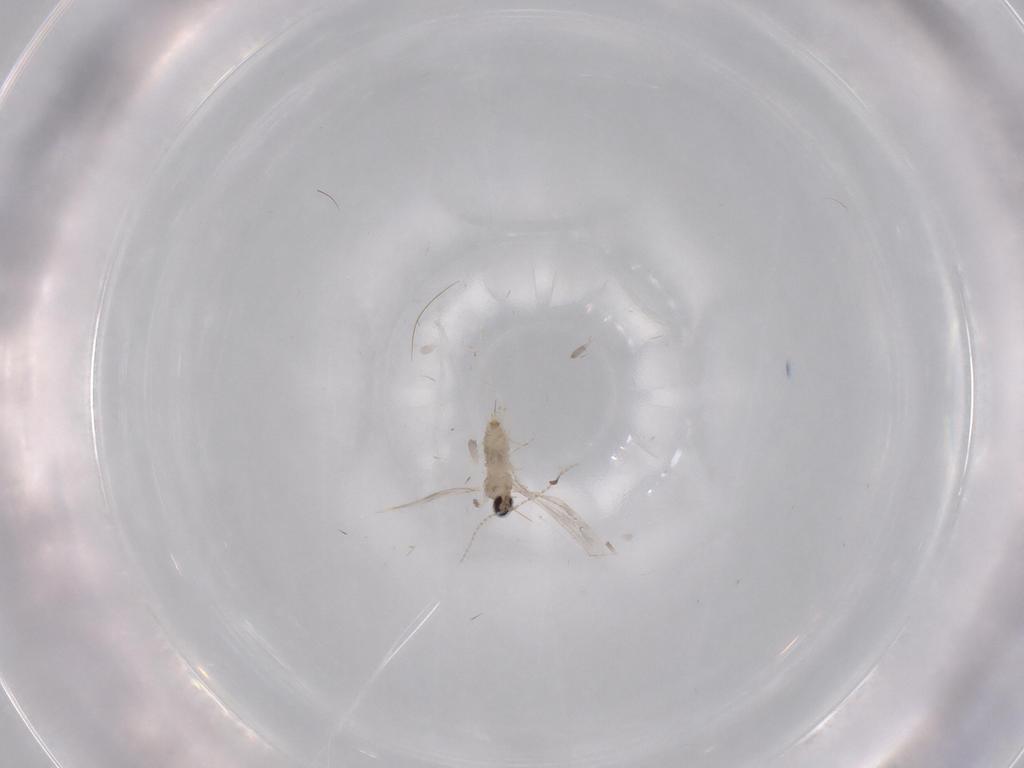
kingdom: Animalia
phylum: Arthropoda
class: Insecta
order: Diptera
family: Cecidomyiidae
